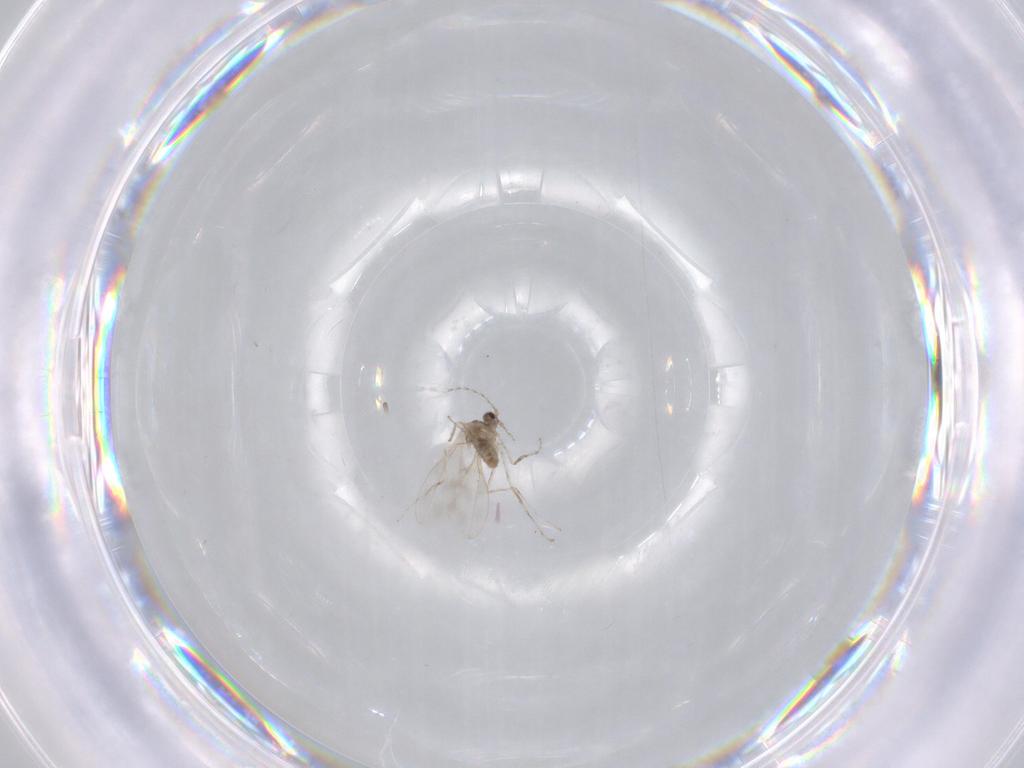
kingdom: Animalia
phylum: Arthropoda
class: Insecta
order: Diptera
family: Cecidomyiidae
